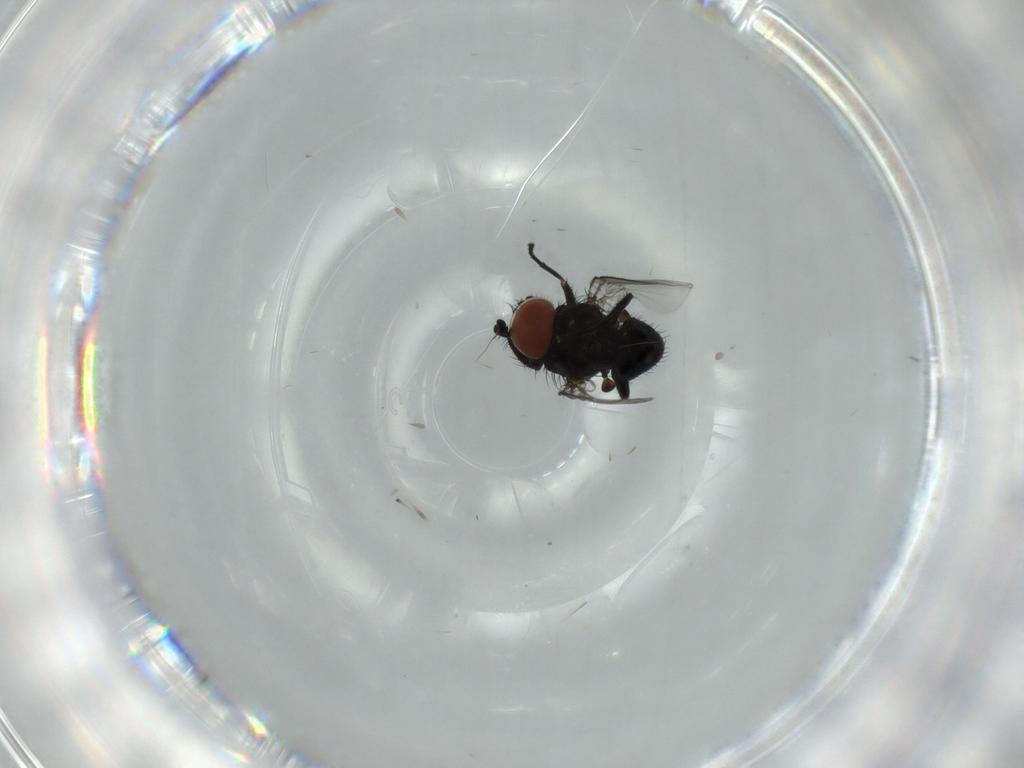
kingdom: Animalia
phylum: Arthropoda
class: Insecta
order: Diptera
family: Milichiidae
